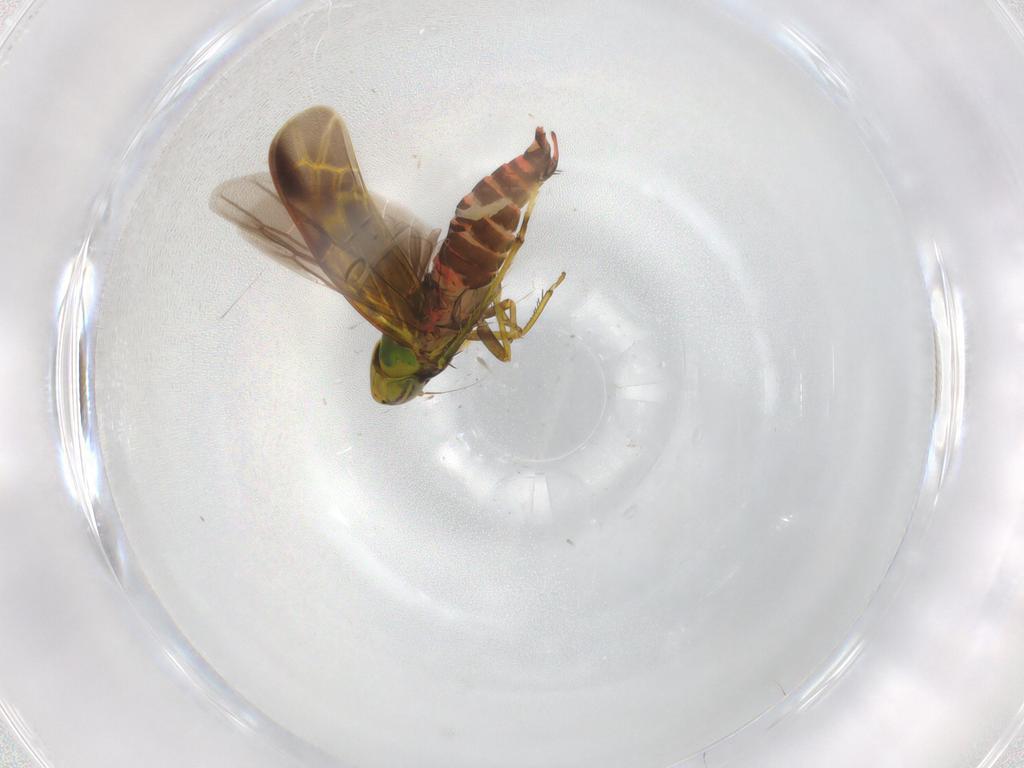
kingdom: Animalia
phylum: Arthropoda
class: Insecta
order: Hemiptera
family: Cicadellidae
